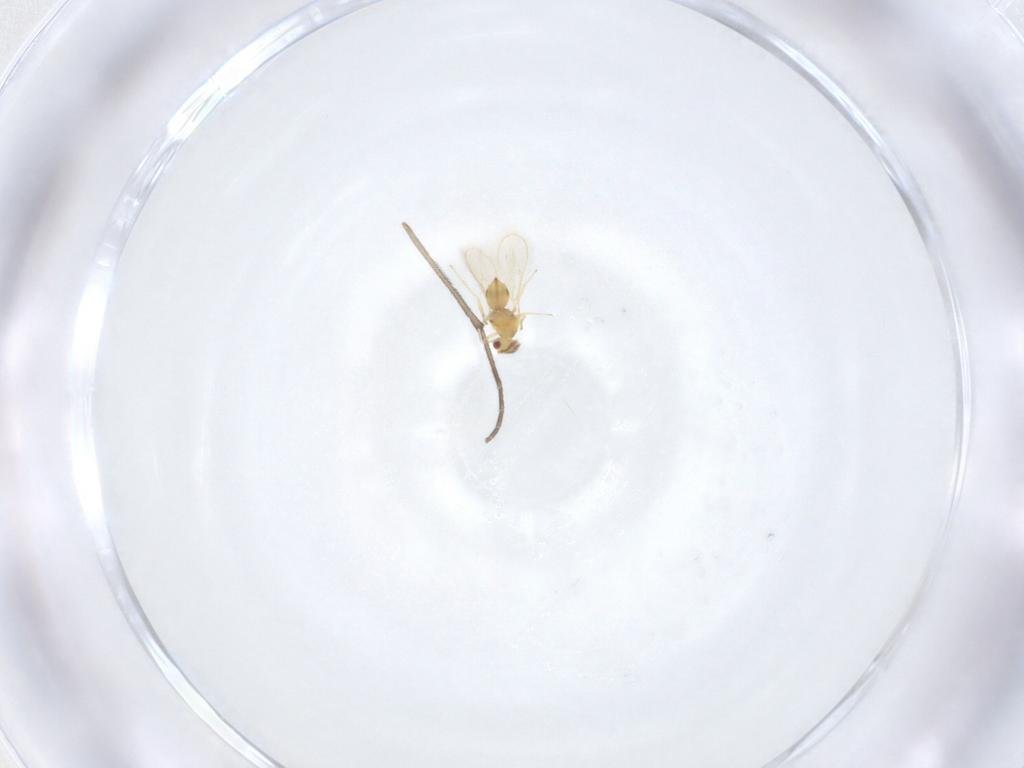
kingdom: Animalia
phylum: Arthropoda
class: Insecta
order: Diptera
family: Sciaridae
